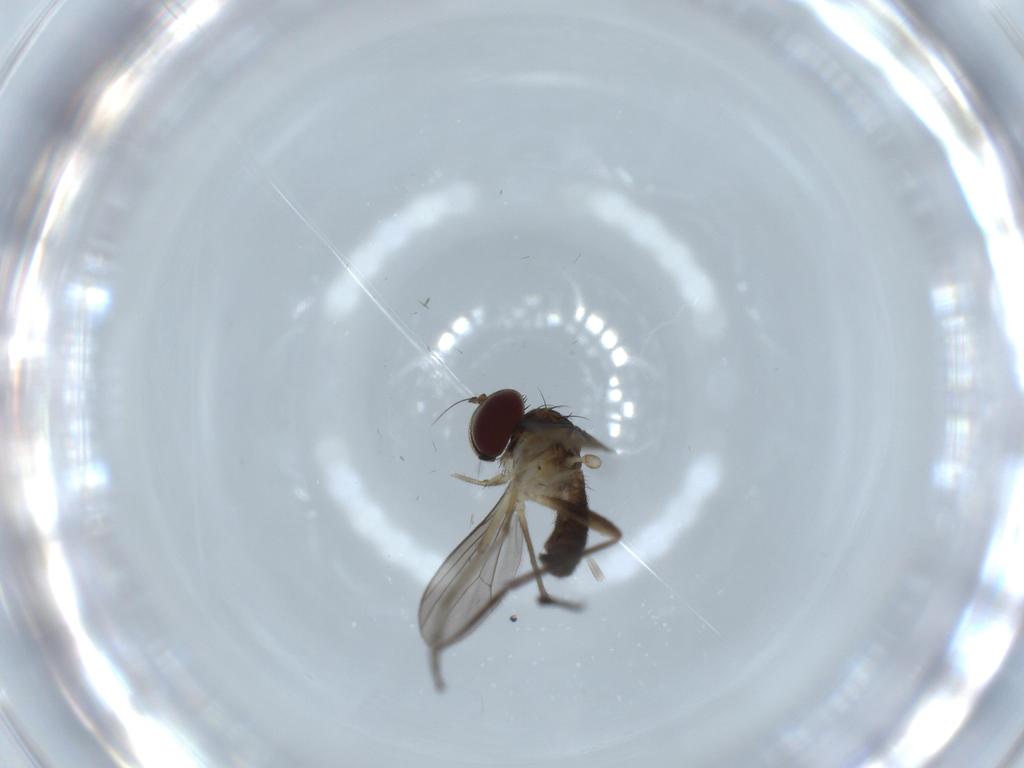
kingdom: Animalia
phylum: Arthropoda
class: Insecta
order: Diptera
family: Dolichopodidae
